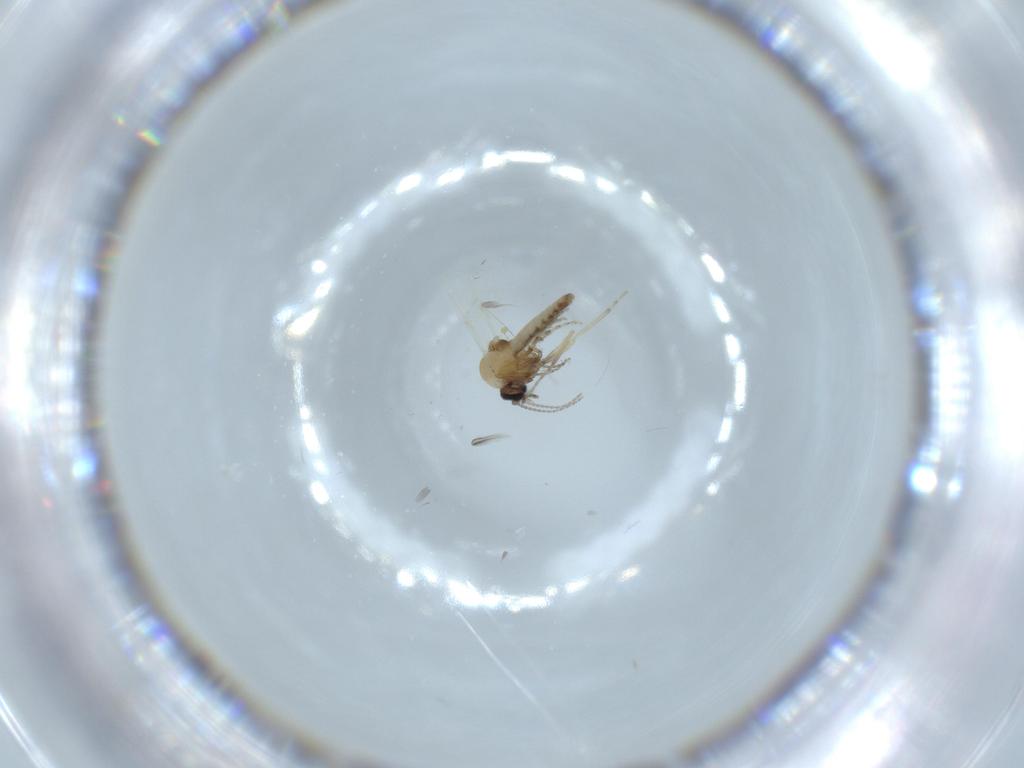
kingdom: Animalia
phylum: Arthropoda
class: Insecta
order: Diptera
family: Ceratopogonidae
